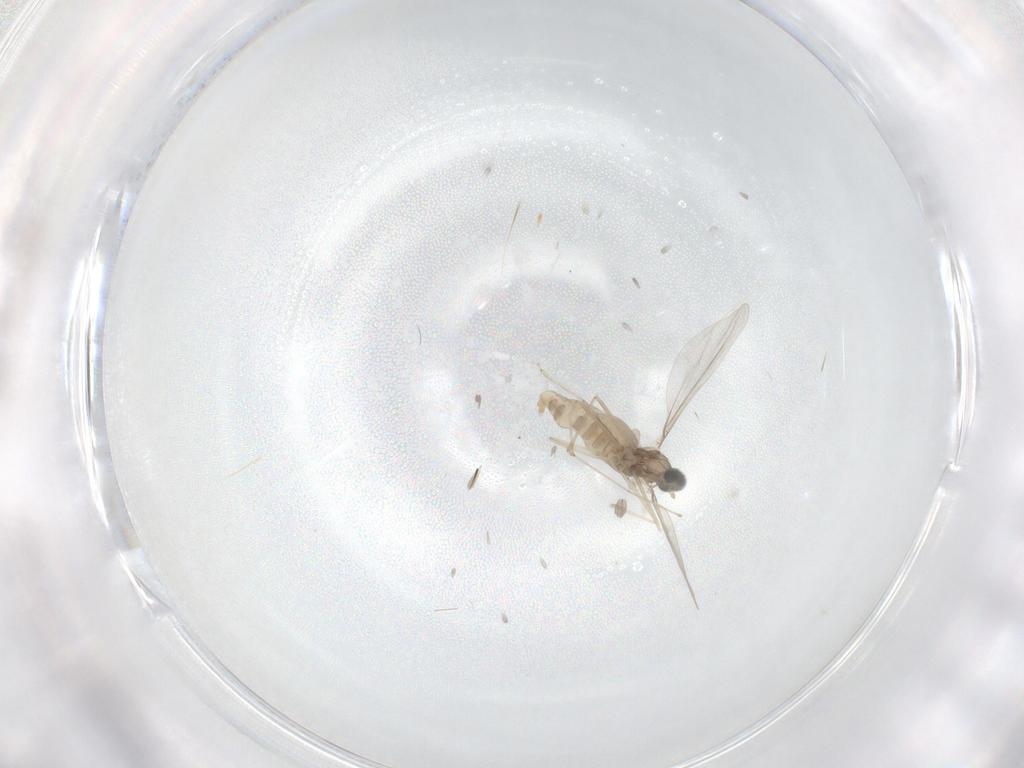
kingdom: Animalia
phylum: Arthropoda
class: Insecta
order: Diptera
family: Cecidomyiidae
